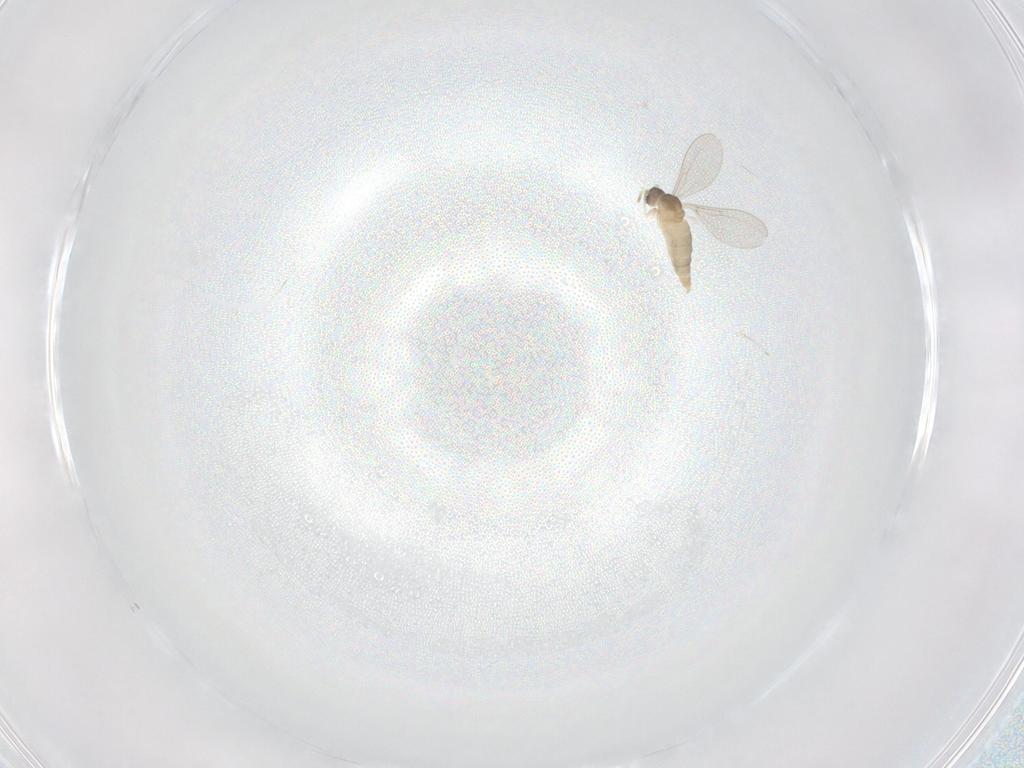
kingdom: Animalia
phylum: Arthropoda
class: Insecta
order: Diptera
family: Cecidomyiidae
